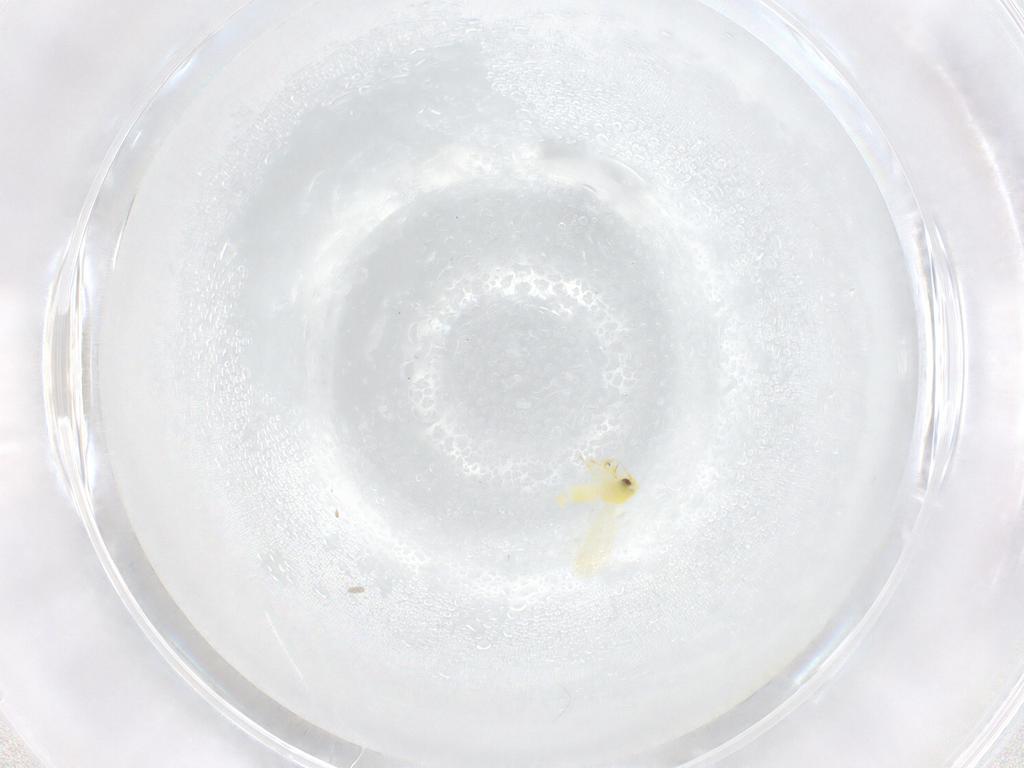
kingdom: Animalia
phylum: Arthropoda
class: Insecta
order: Hemiptera
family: Aleyrodidae
